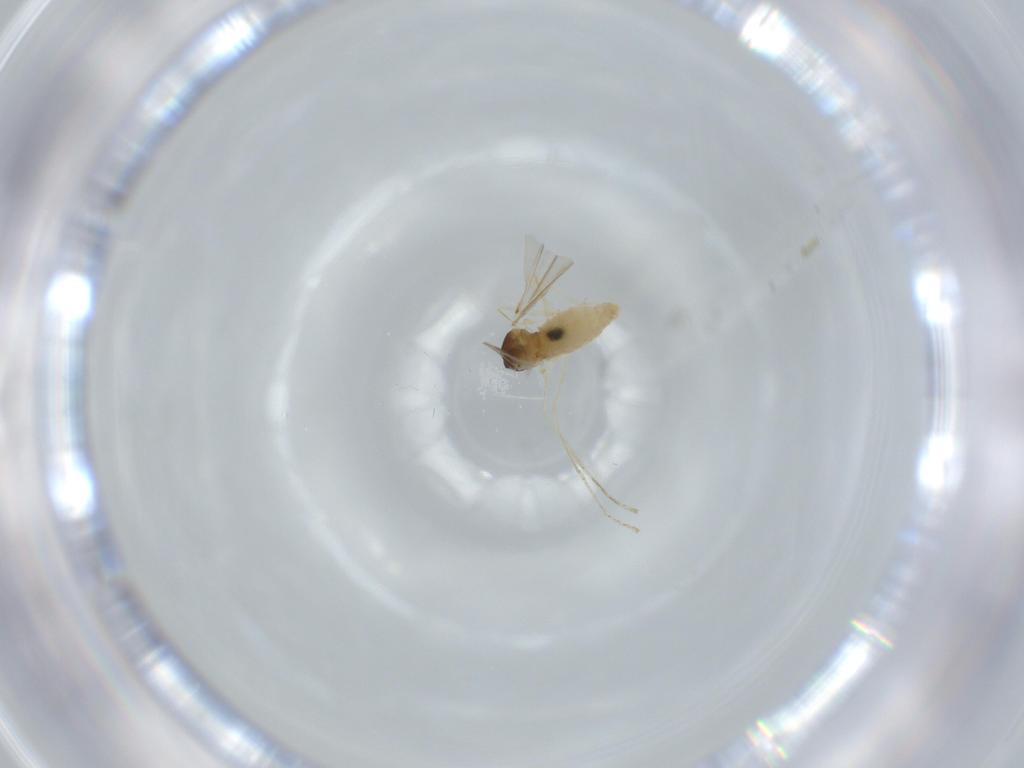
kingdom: Animalia
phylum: Arthropoda
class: Insecta
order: Diptera
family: Cecidomyiidae
